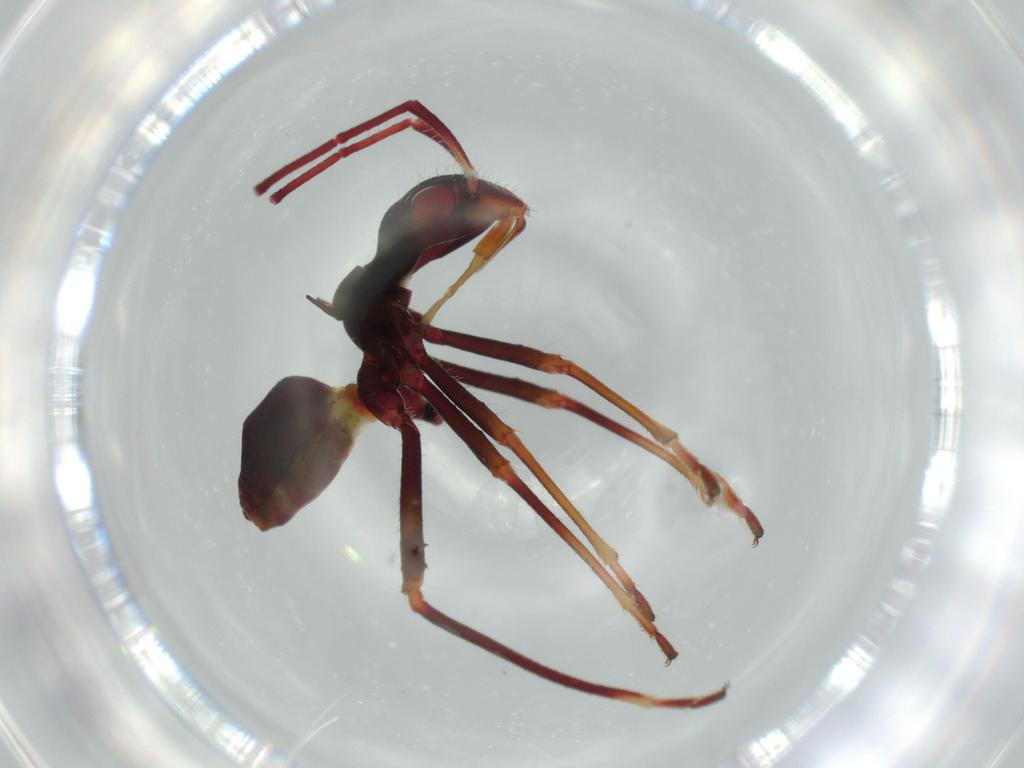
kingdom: Animalia
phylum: Arthropoda
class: Insecta
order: Hemiptera
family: Alydidae
